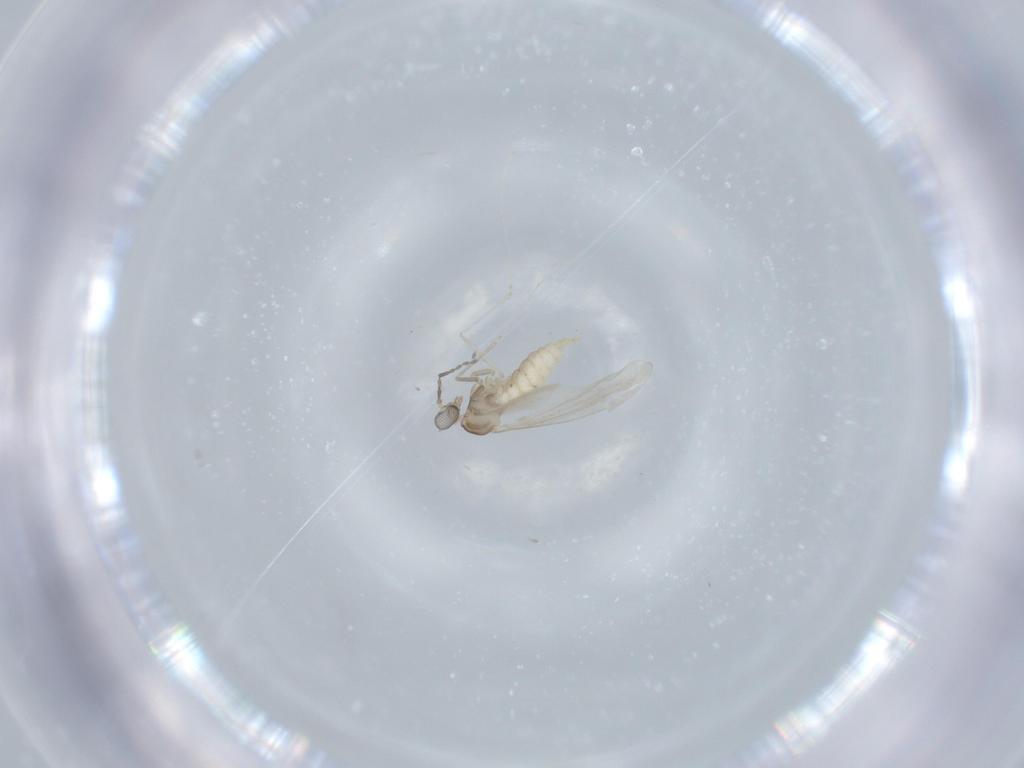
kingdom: Animalia
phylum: Arthropoda
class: Insecta
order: Diptera
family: Cecidomyiidae
